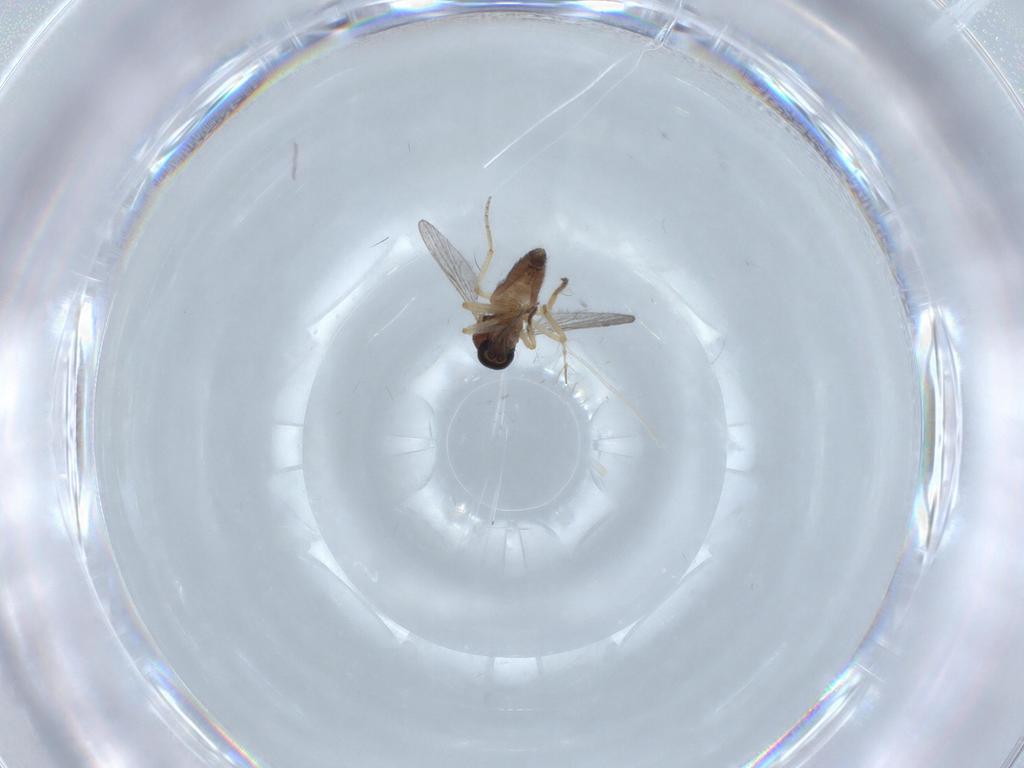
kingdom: Animalia
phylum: Arthropoda
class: Insecta
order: Diptera
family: Ceratopogonidae
